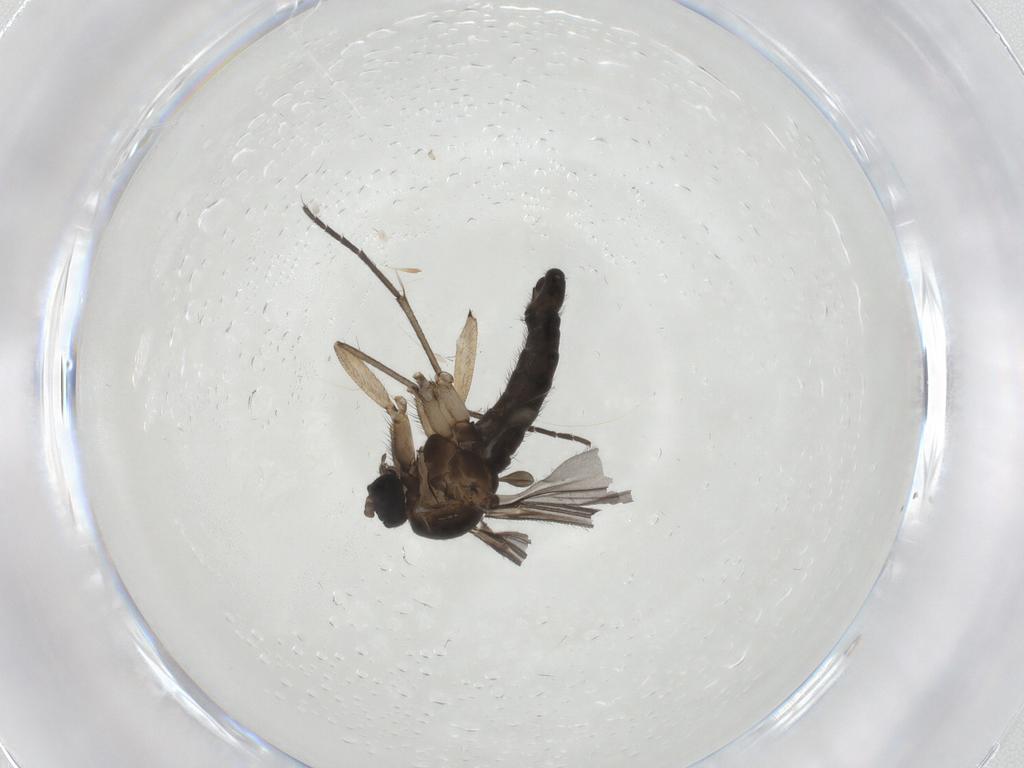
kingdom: Animalia
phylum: Arthropoda
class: Insecta
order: Diptera
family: Sciaridae
